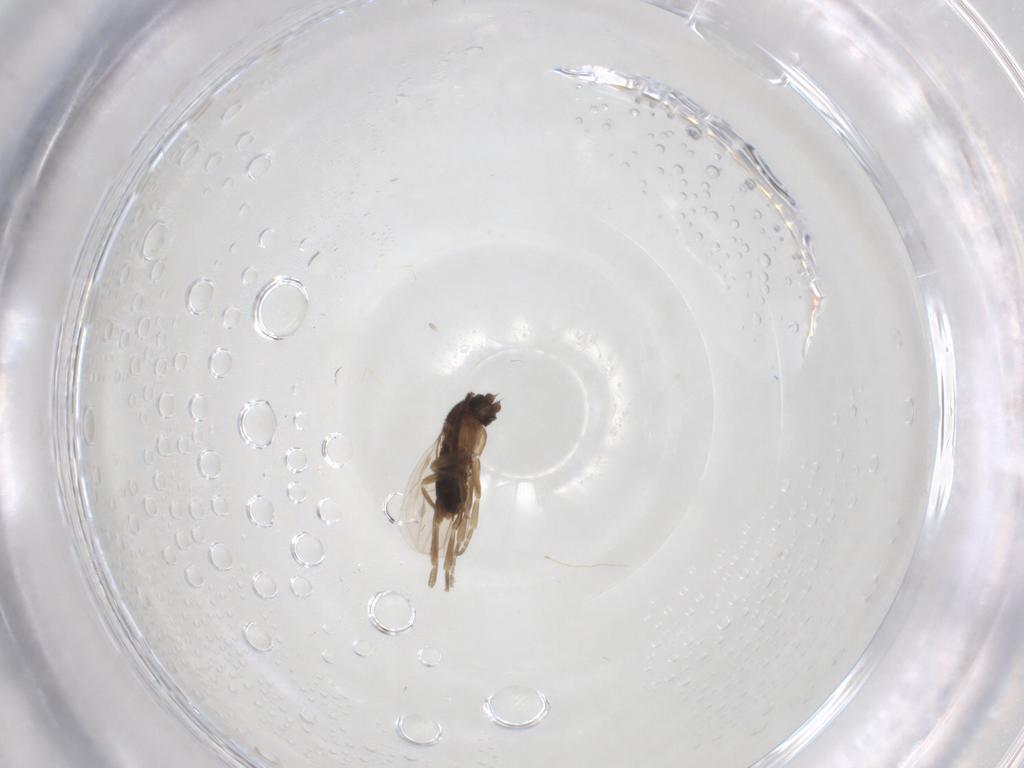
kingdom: Animalia
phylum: Arthropoda
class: Insecta
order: Diptera
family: Phoridae
